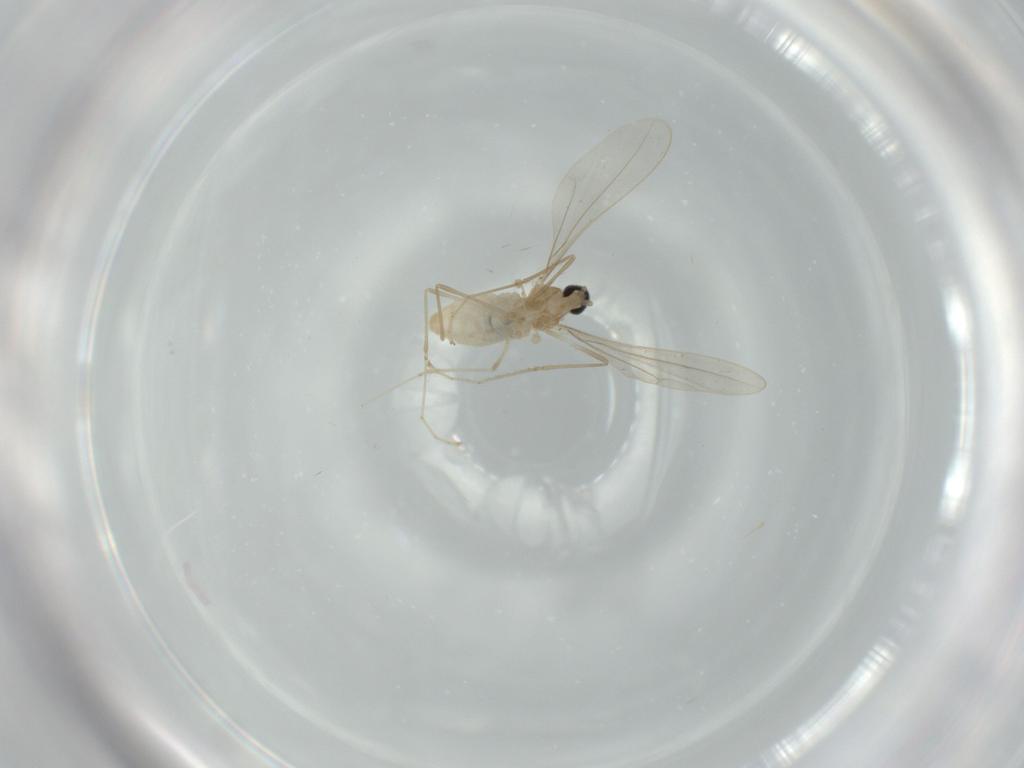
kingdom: Animalia
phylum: Arthropoda
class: Insecta
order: Diptera
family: Cecidomyiidae
